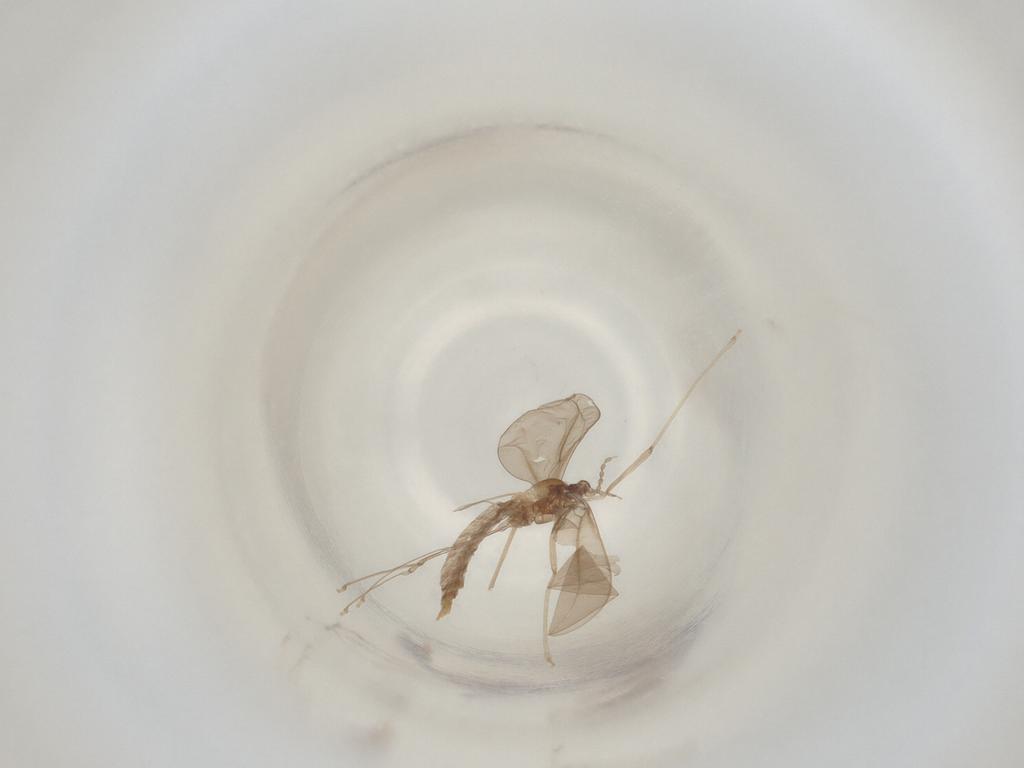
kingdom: Animalia
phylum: Arthropoda
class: Insecta
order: Diptera
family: Cecidomyiidae
